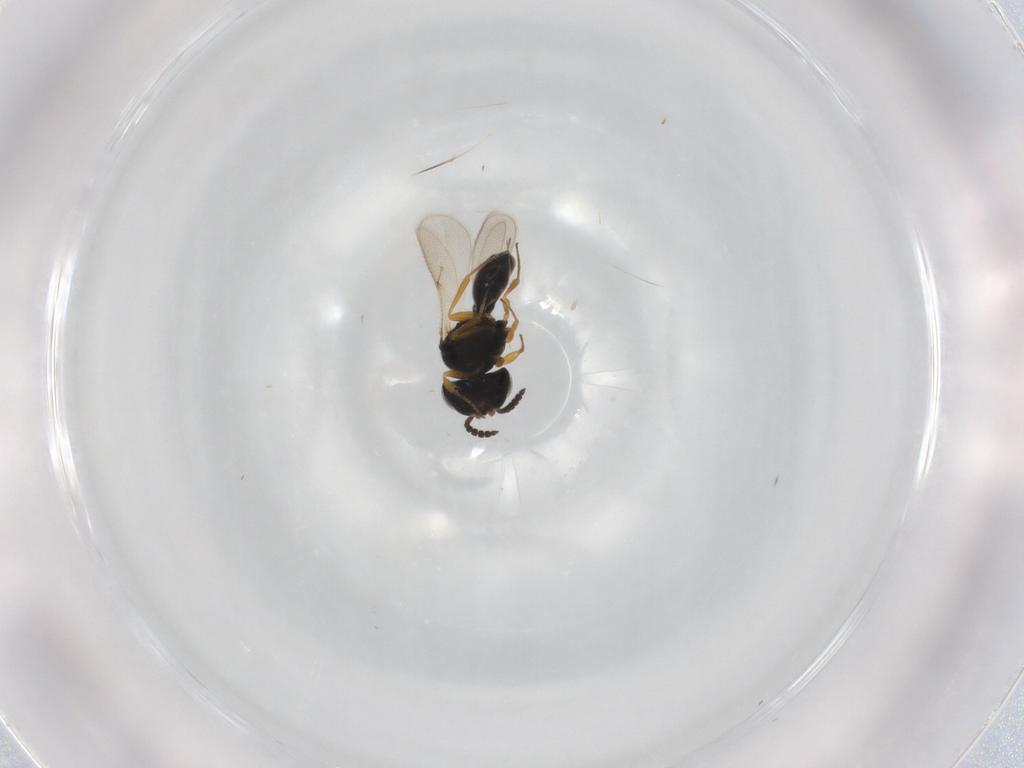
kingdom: Animalia
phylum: Arthropoda
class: Insecta
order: Hymenoptera
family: Scelionidae
